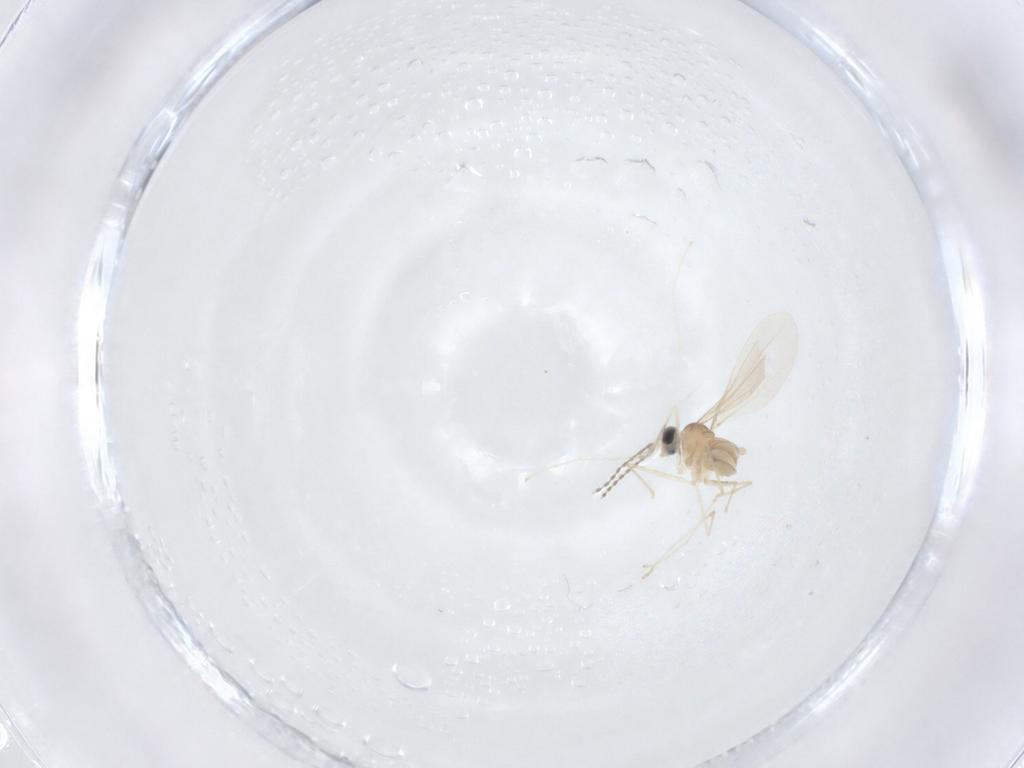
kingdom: Animalia
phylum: Arthropoda
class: Insecta
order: Diptera
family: Cecidomyiidae
